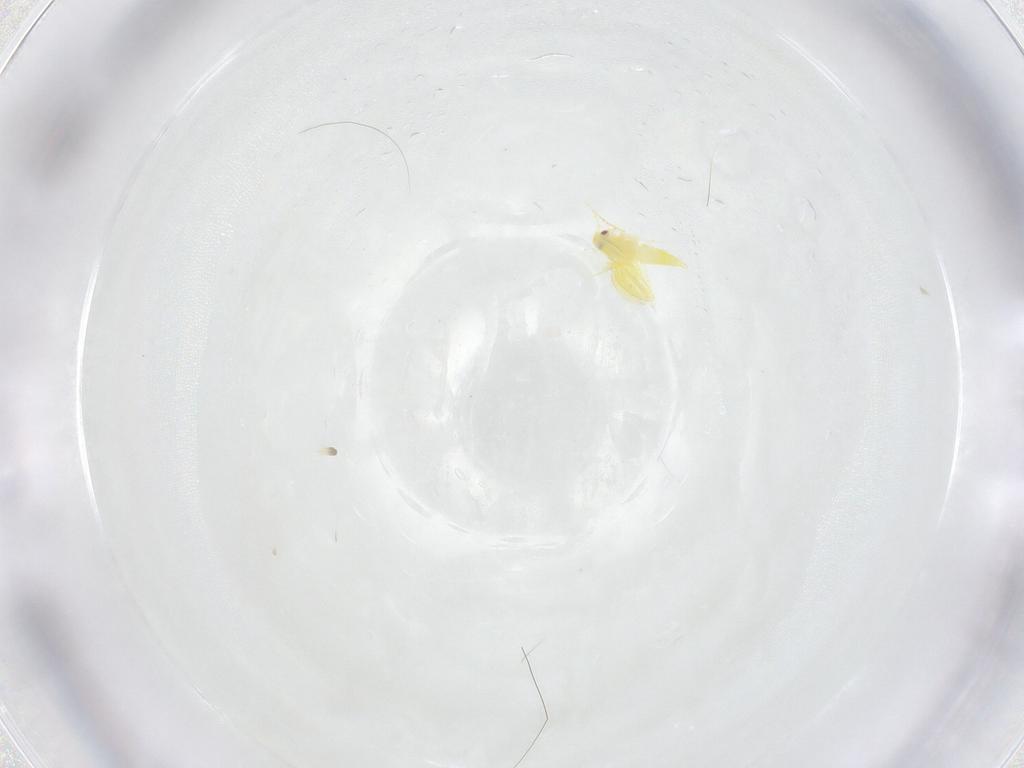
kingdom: Animalia
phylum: Arthropoda
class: Insecta
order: Hemiptera
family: Aleyrodidae
